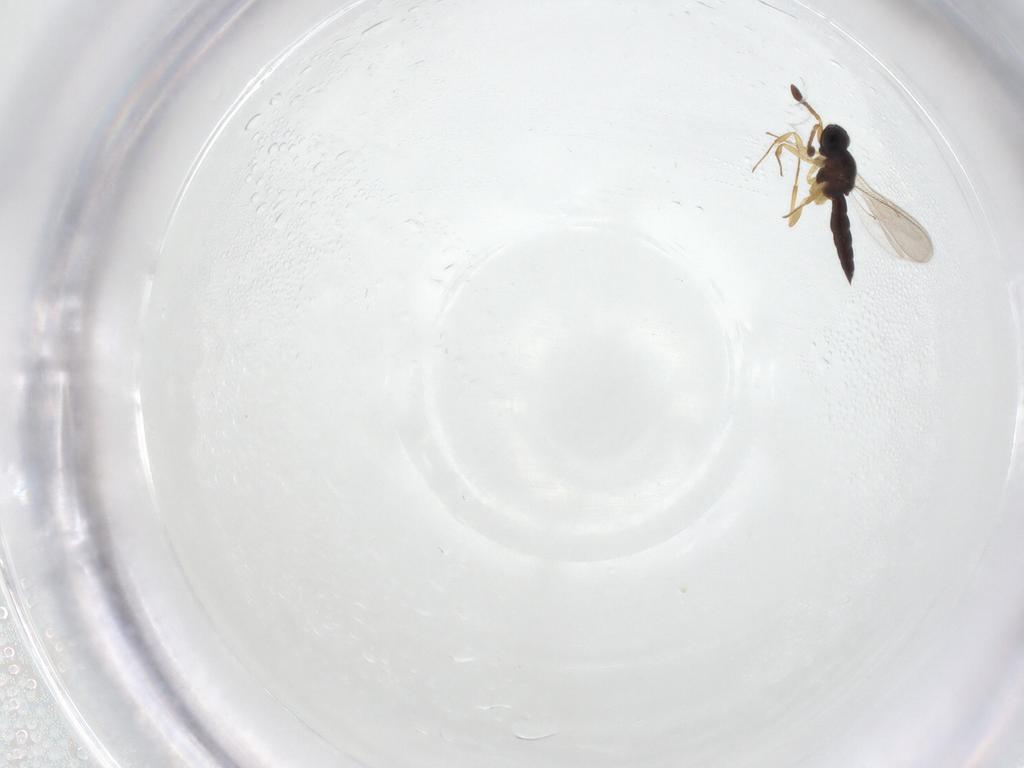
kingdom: Animalia
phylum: Arthropoda
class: Insecta
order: Hymenoptera
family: Scelionidae
